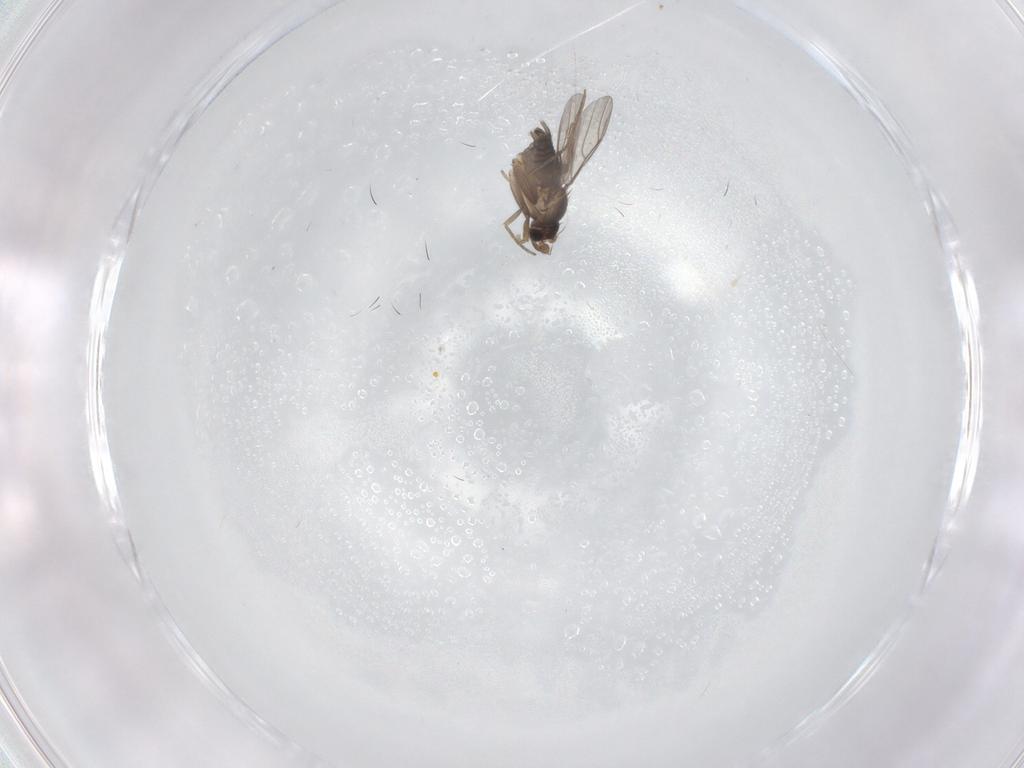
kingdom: Animalia
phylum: Arthropoda
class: Insecta
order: Diptera
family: Phoridae
